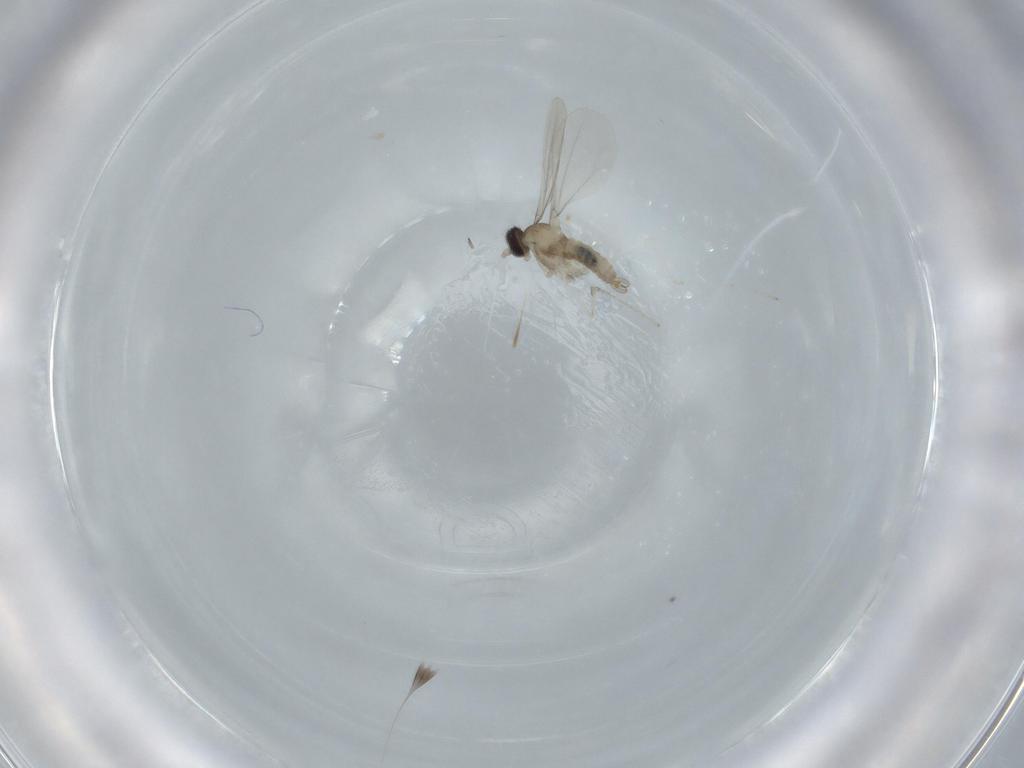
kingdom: Animalia
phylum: Arthropoda
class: Insecta
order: Diptera
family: Cecidomyiidae
